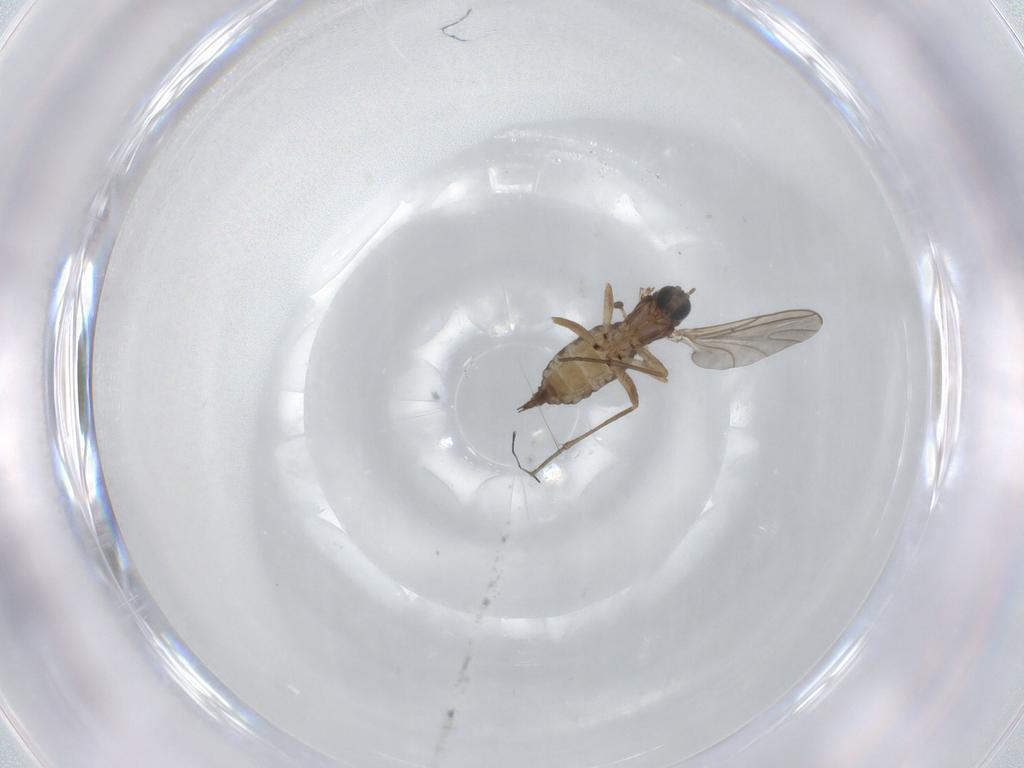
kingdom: Animalia
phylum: Arthropoda
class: Insecta
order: Diptera
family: Sciaridae
